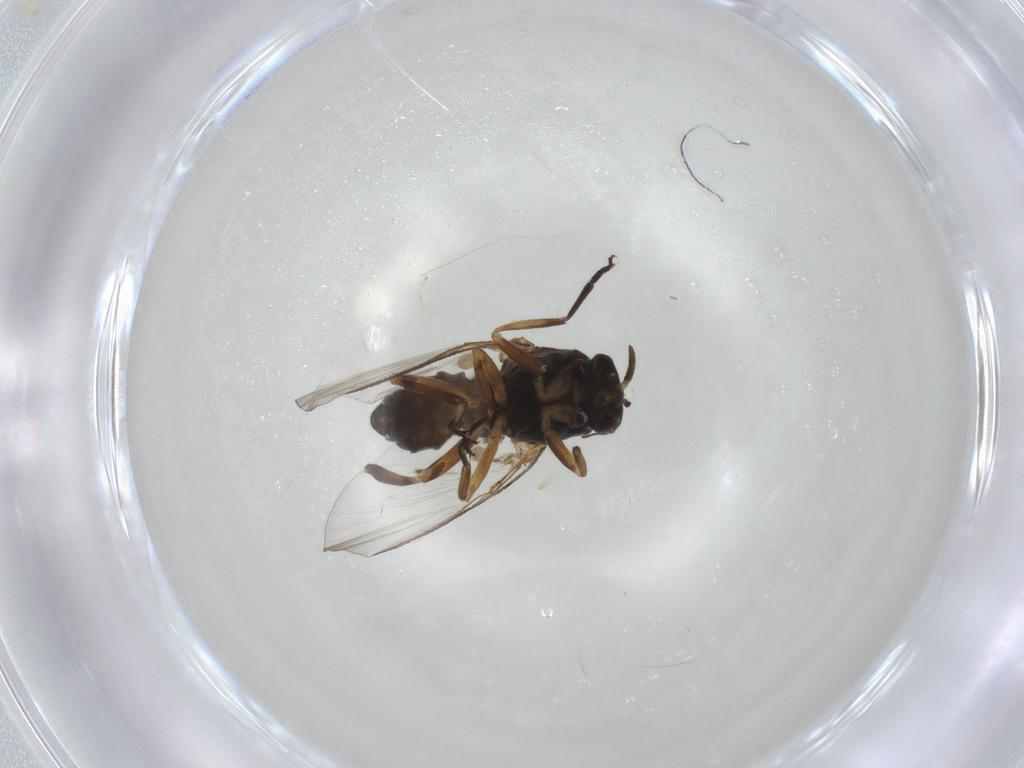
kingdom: Animalia
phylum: Arthropoda
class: Insecta
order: Diptera
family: Chironomidae
